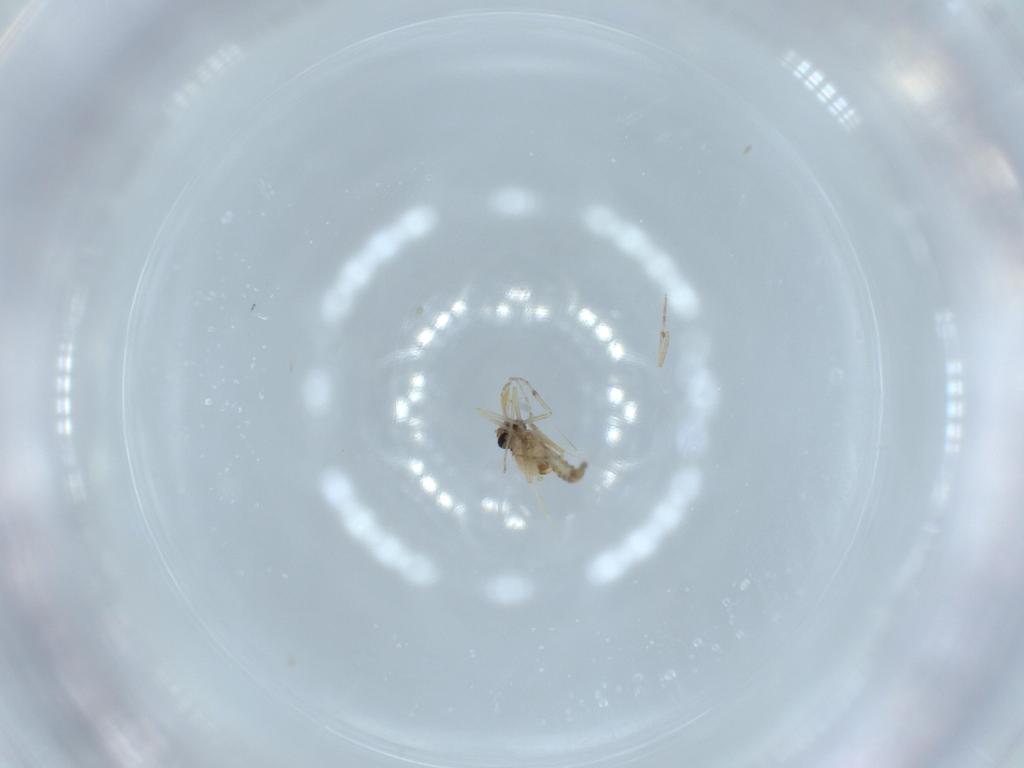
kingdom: Animalia
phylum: Arthropoda
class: Insecta
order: Diptera
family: Ceratopogonidae
